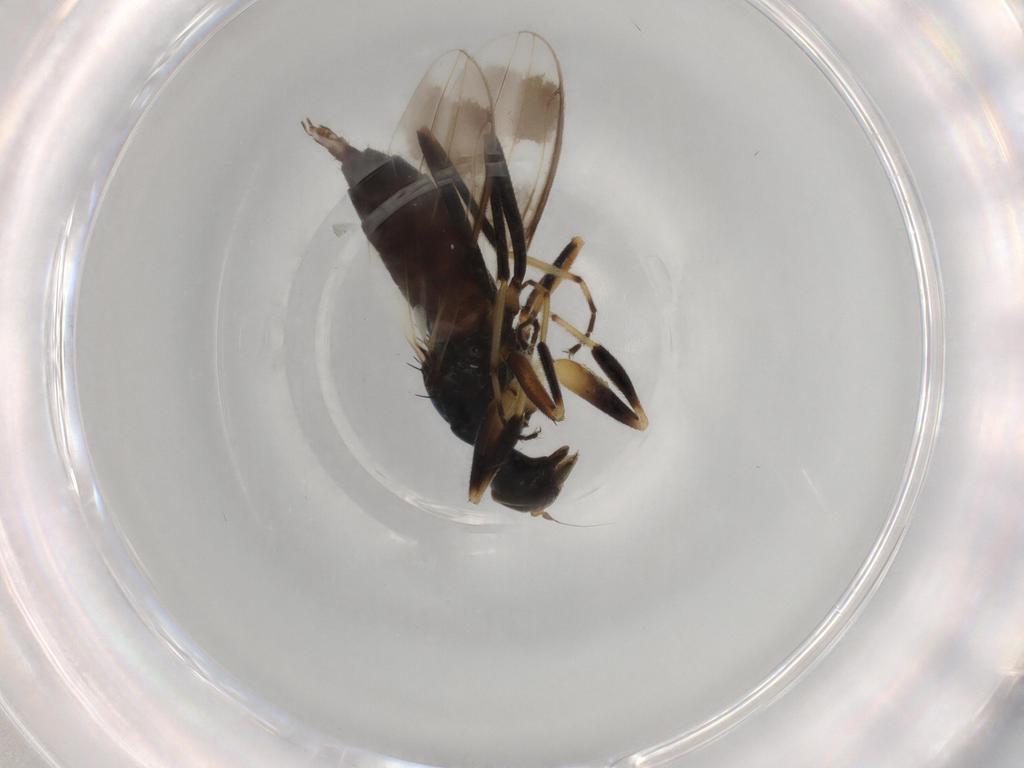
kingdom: Animalia
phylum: Arthropoda
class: Insecta
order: Diptera
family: Hybotidae
